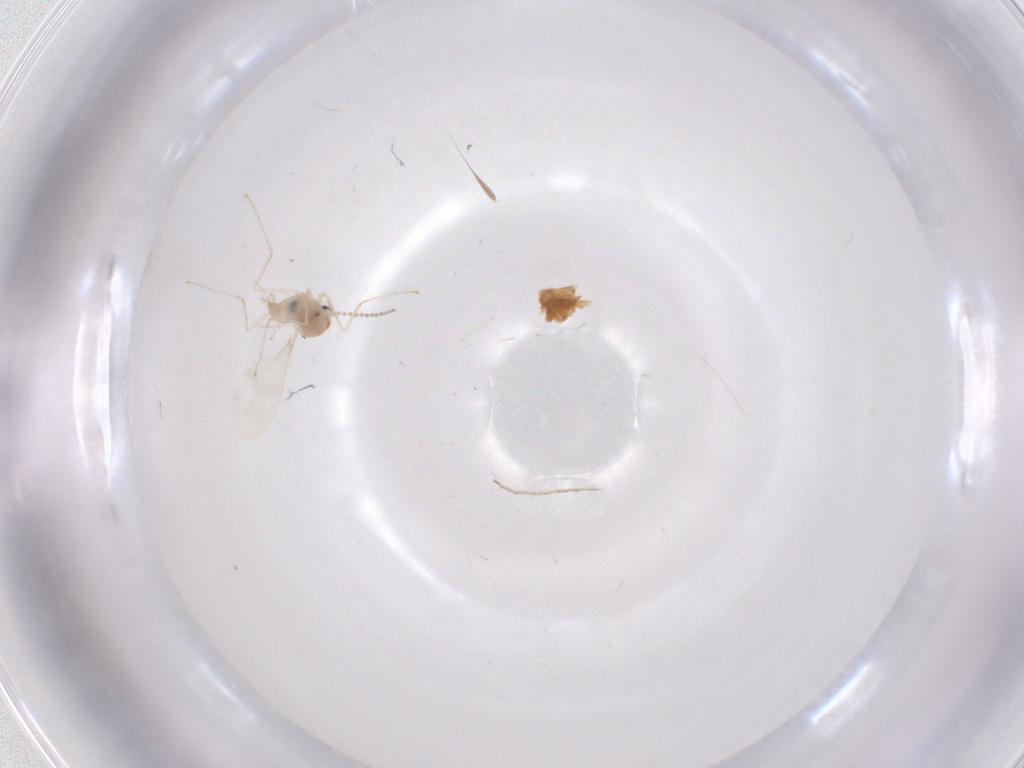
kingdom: Animalia
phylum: Arthropoda
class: Insecta
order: Diptera
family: Cecidomyiidae
